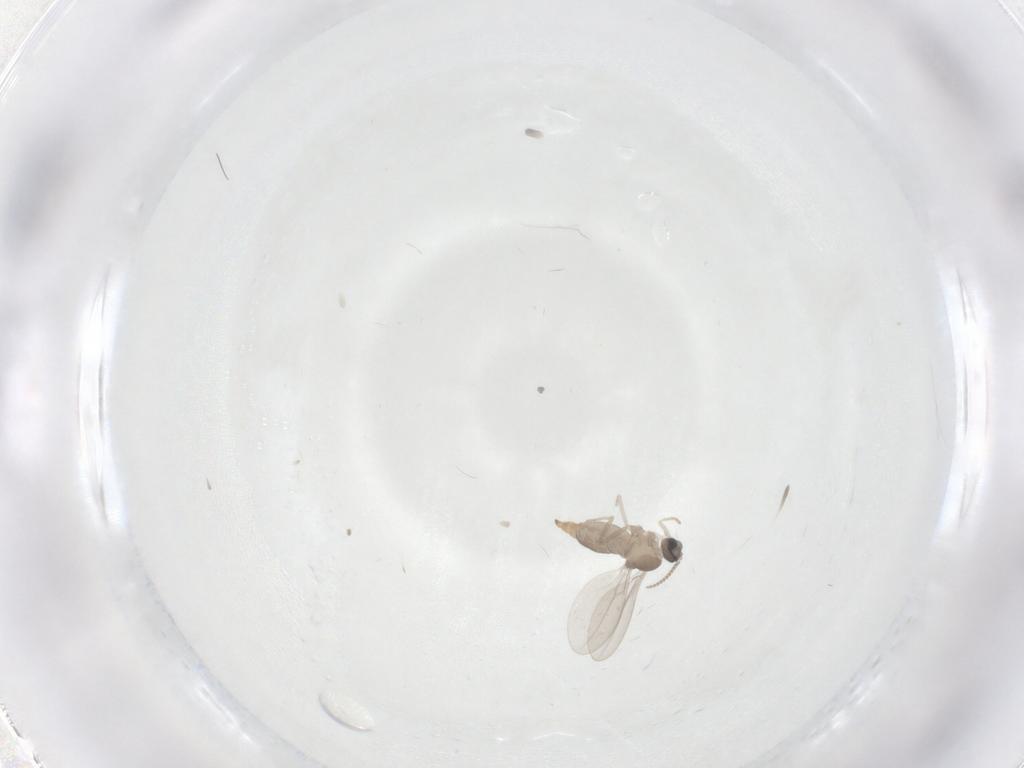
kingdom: Animalia
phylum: Arthropoda
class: Insecta
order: Diptera
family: Cecidomyiidae
